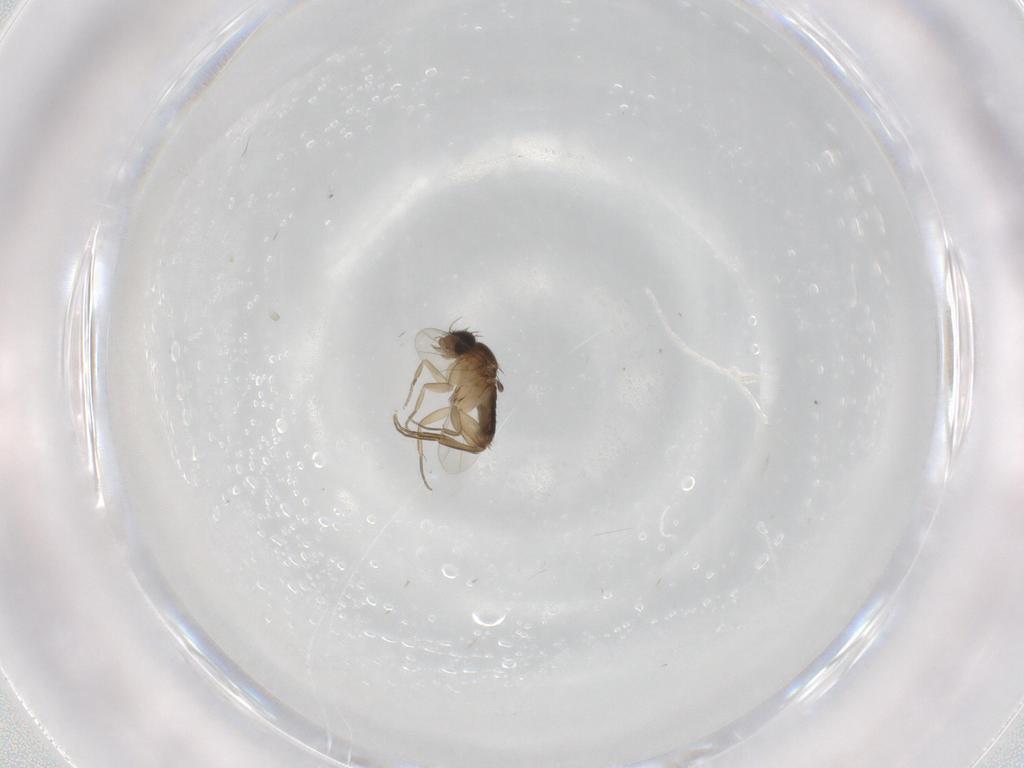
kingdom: Animalia
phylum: Arthropoda
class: Insecta
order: Diptera
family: Phoridae
